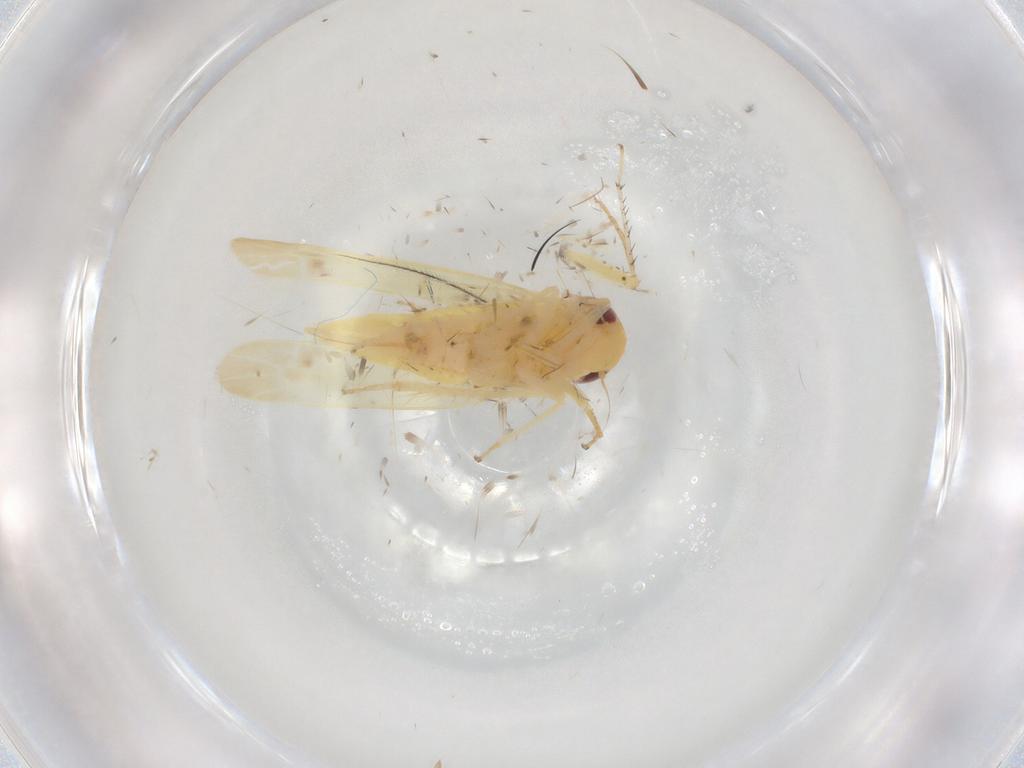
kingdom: Animalia
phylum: Arthropoda
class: Insecta
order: Hemiptera
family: Cicadellidae
